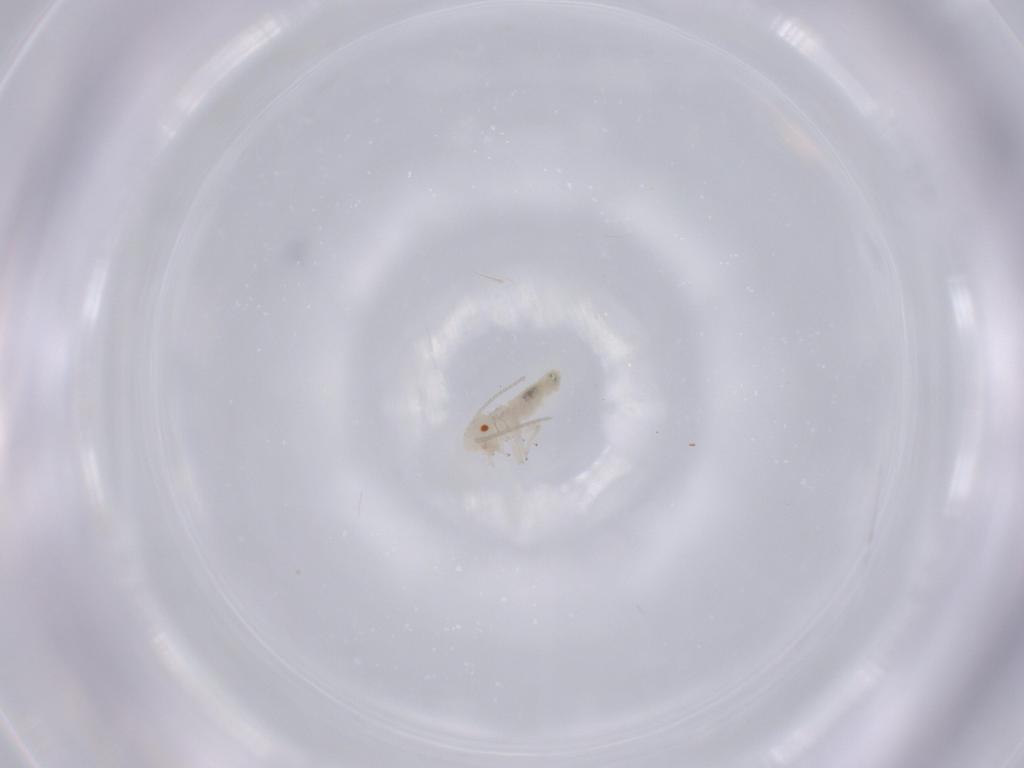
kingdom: Animalia
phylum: Arthropoda
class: Insecta
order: Psocodea
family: Caeciliusidae
